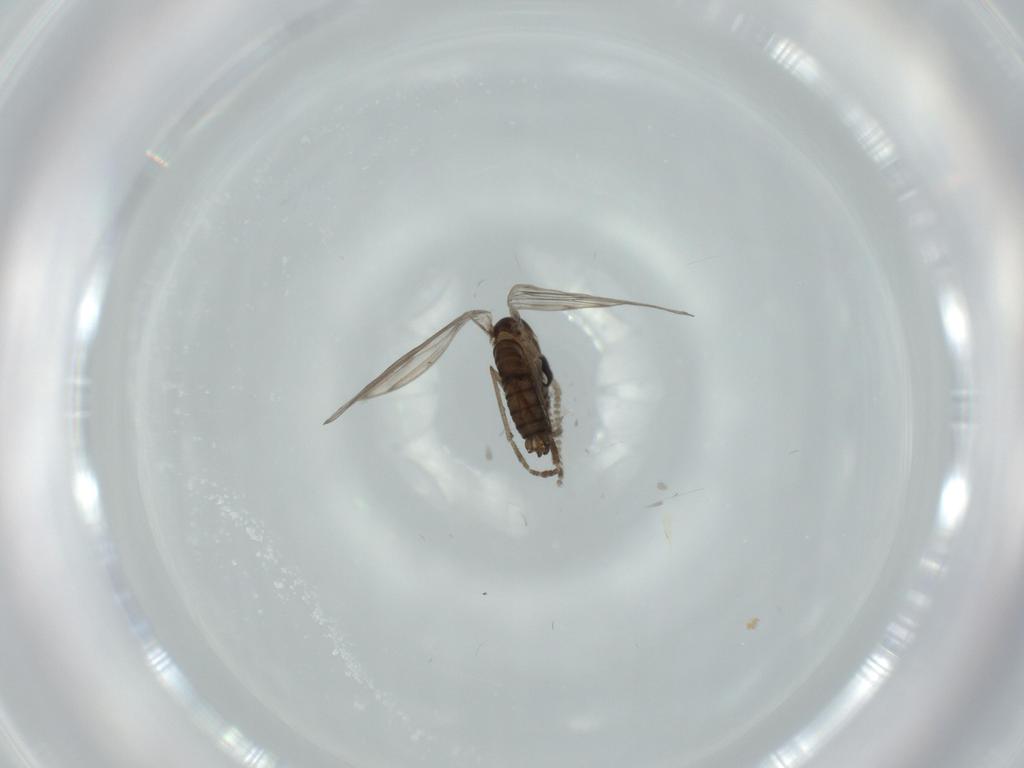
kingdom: Animalia
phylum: Arthropoda
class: Insecta
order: Diptera
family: Psychodidae
